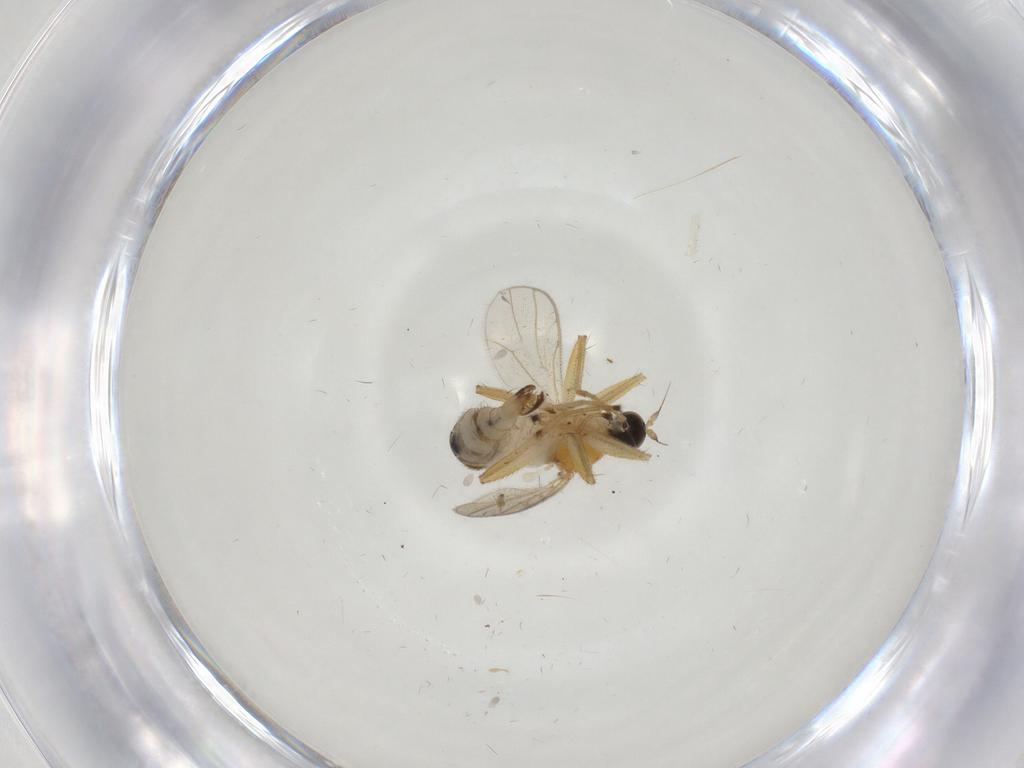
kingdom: Animalia
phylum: Arthropoda
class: Insecta
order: Diptera
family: Hybotidae
